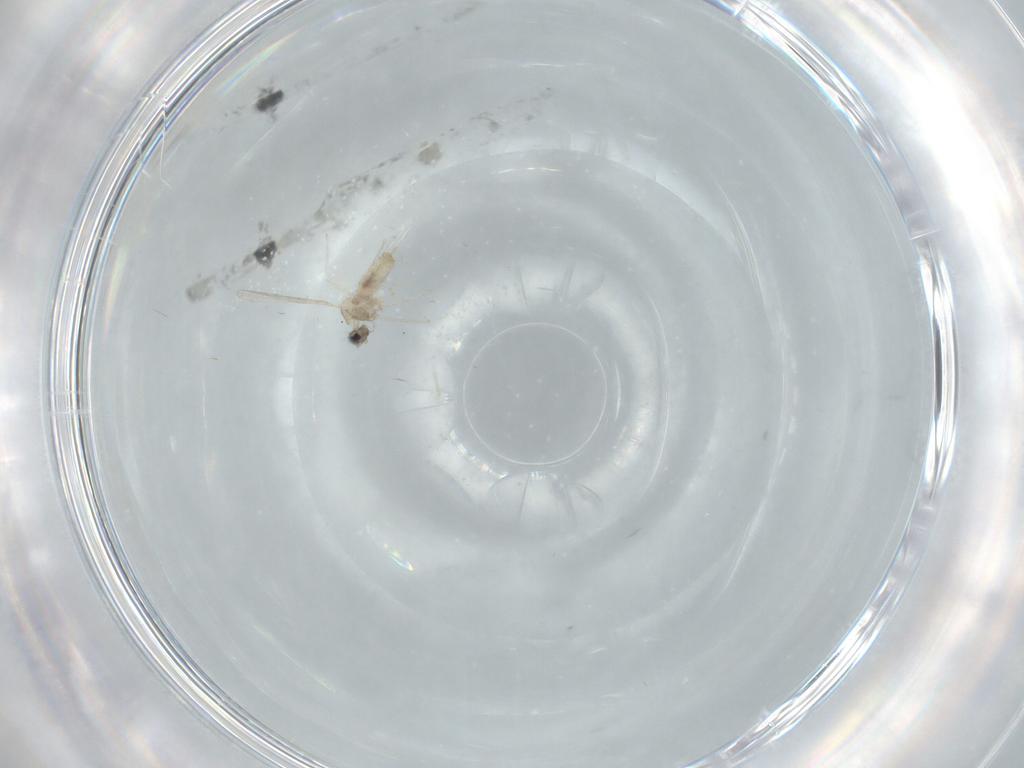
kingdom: Animalia
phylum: Arthropoda
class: Insecta
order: Diptera
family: Cecidomyiidae
